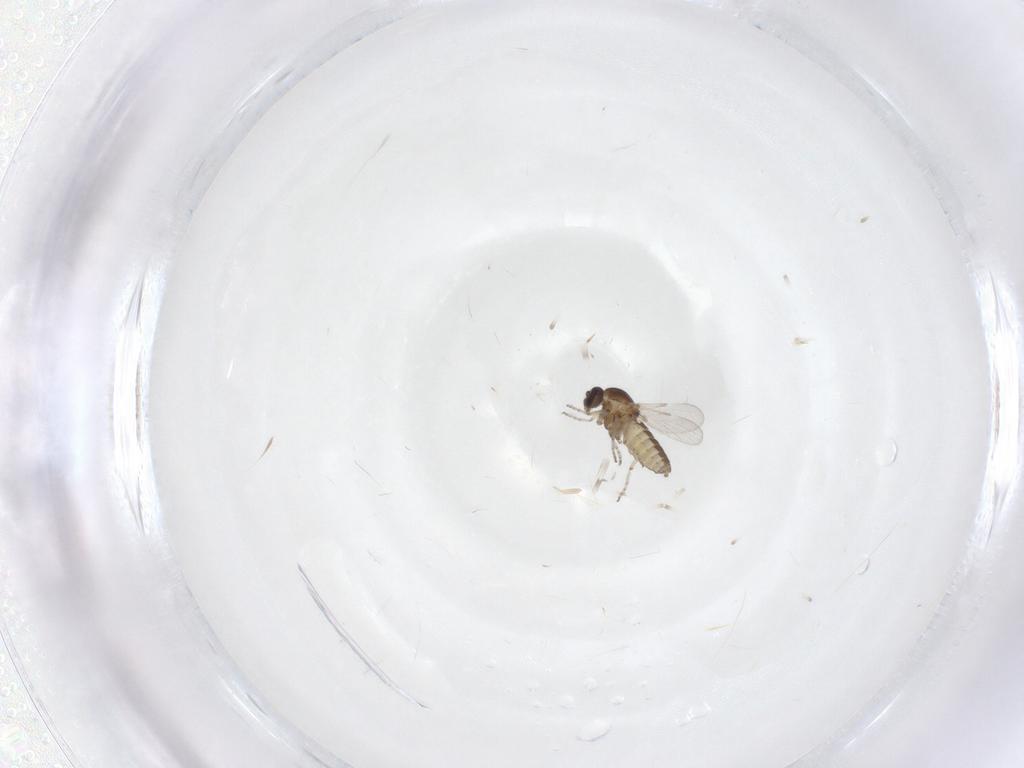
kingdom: Animalia
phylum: Arthropoda
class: Insecta
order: Diptera
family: Ceratopogonidae
